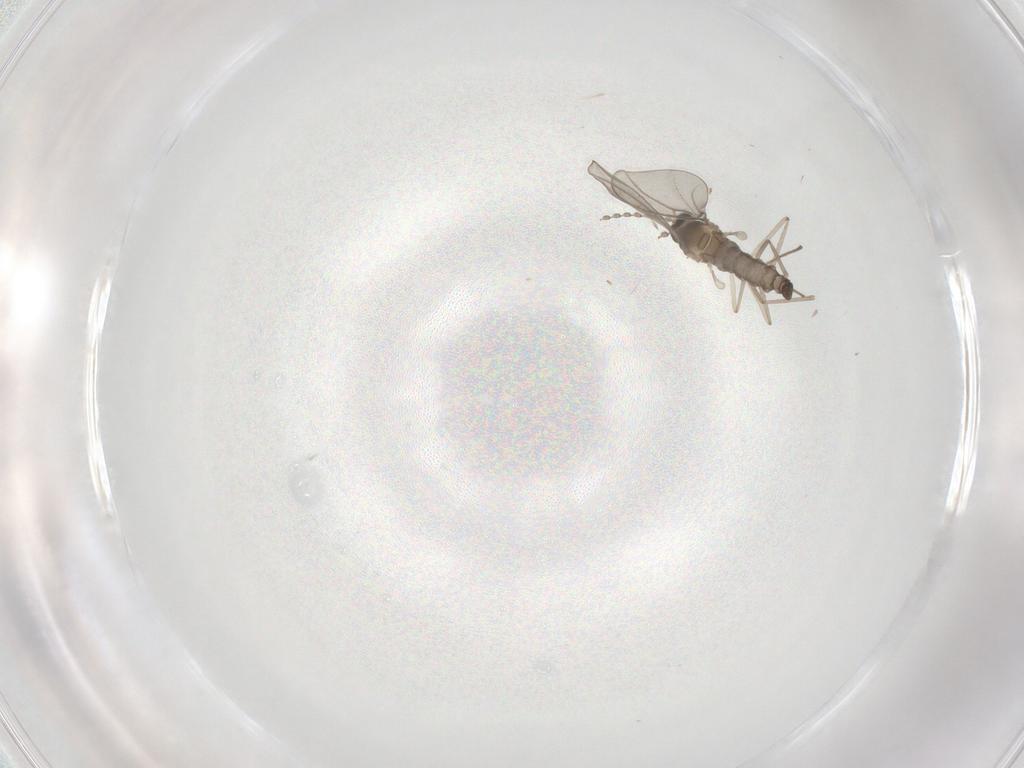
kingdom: Animalia
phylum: Arthropoda
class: Insecta
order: Diptera
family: Cecidomyiidae
